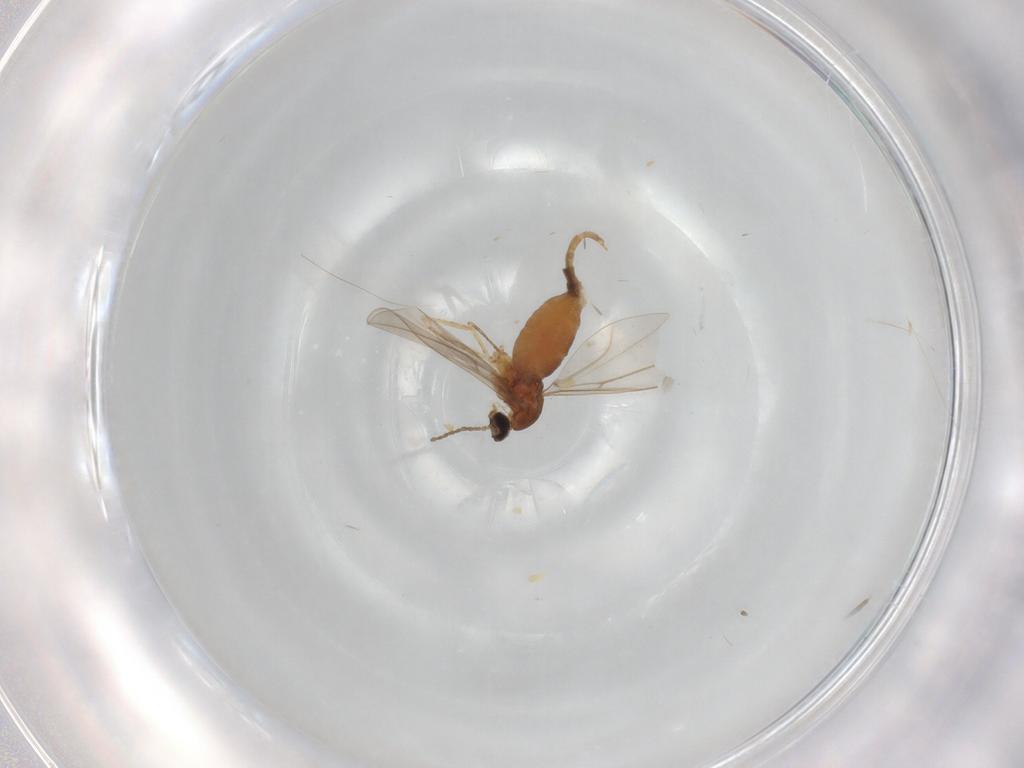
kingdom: Animalia
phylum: Arthropoda
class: Insecta
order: Diptera
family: Cecidomyiidae
